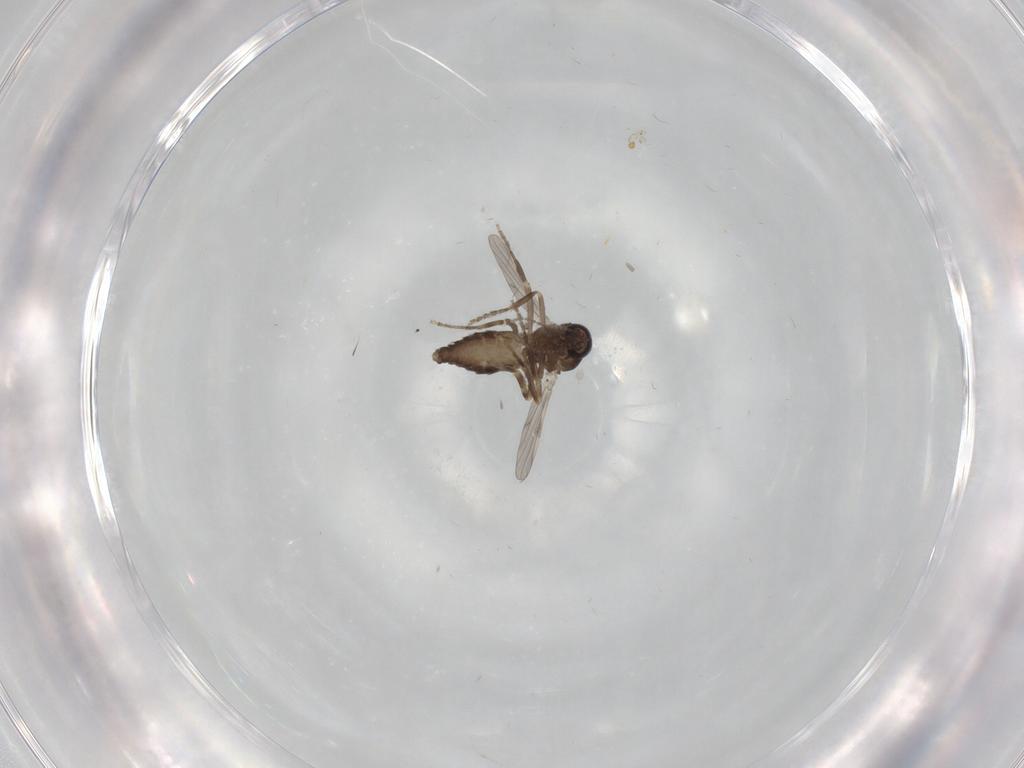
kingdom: Animalia
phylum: Arthropoda
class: Insecta
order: Diptera
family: Ceratopogonidae
